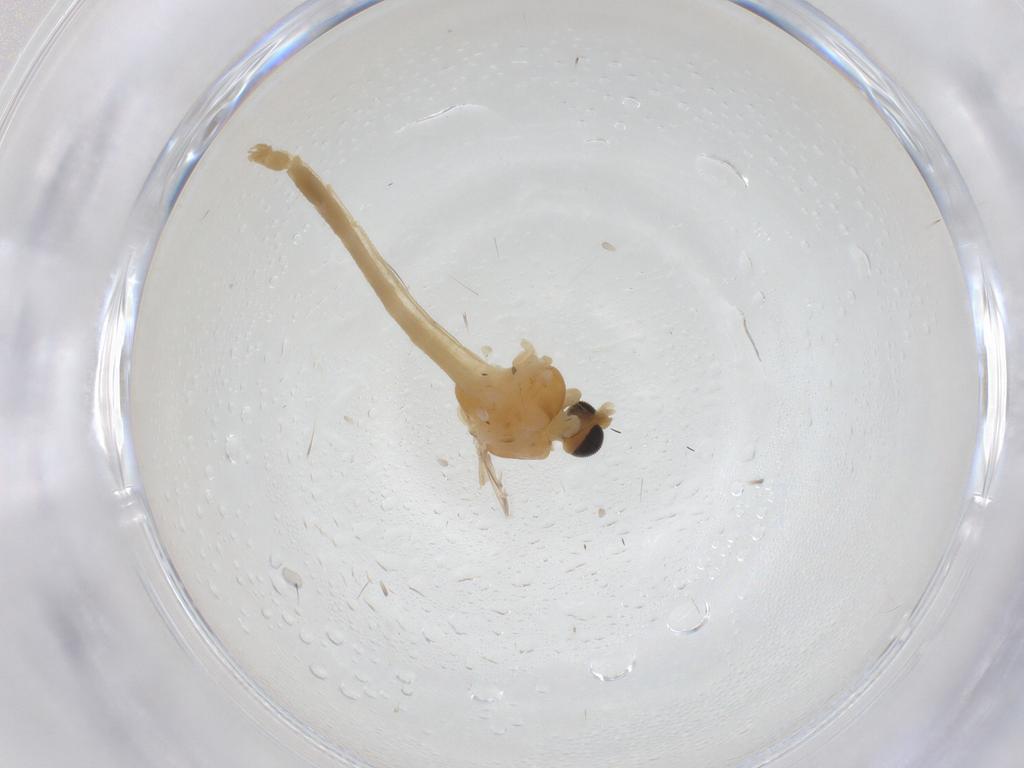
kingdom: Animalia
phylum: Arthropoda
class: Insecta
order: Diptera
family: Chironomidae
